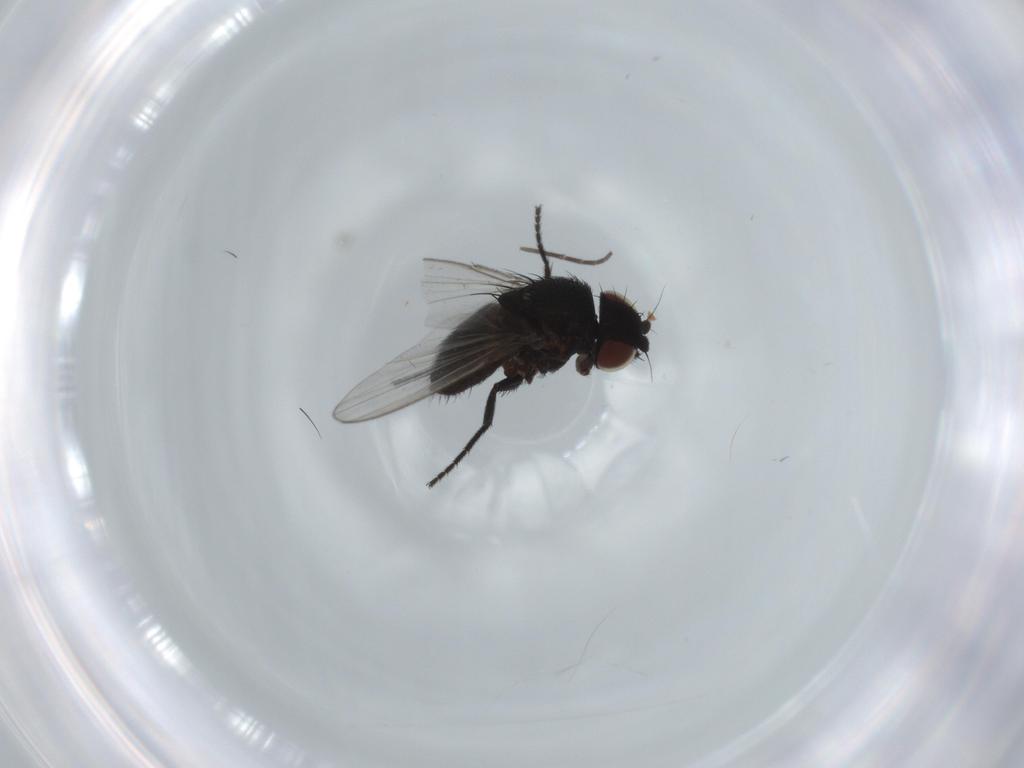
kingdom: Animalia
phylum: Arthropoda
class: Insecta
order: Diptera
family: Milichiidae
